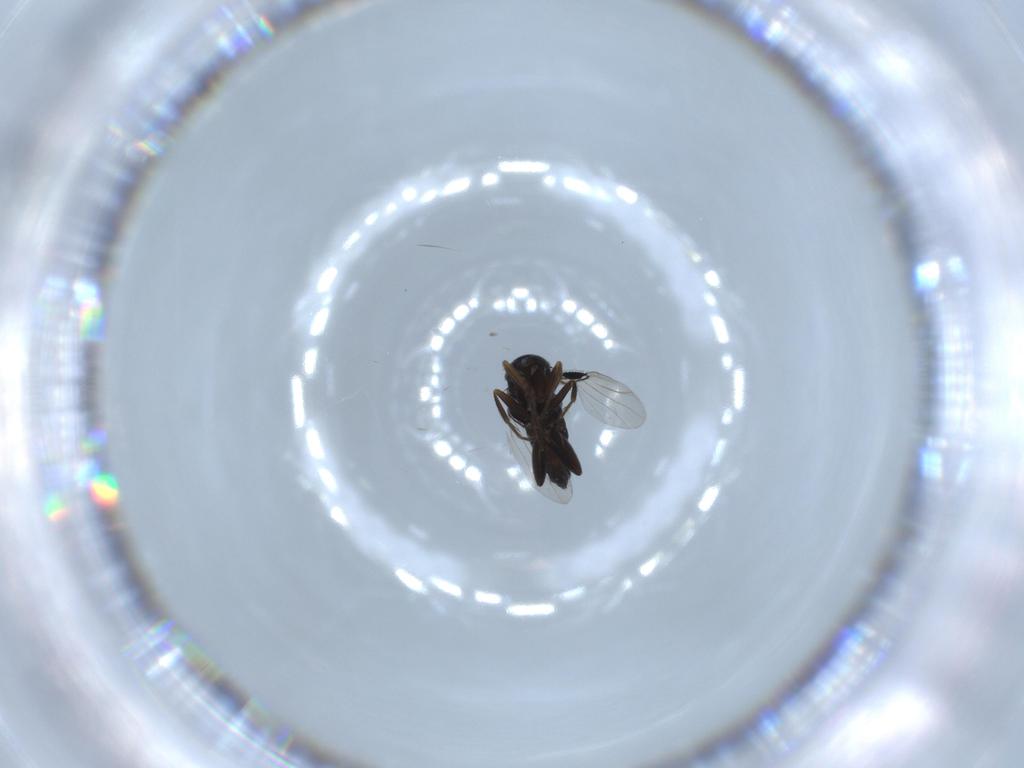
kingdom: Animalia
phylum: Arthropoda
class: Insecta
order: Diptera
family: Phoridae
